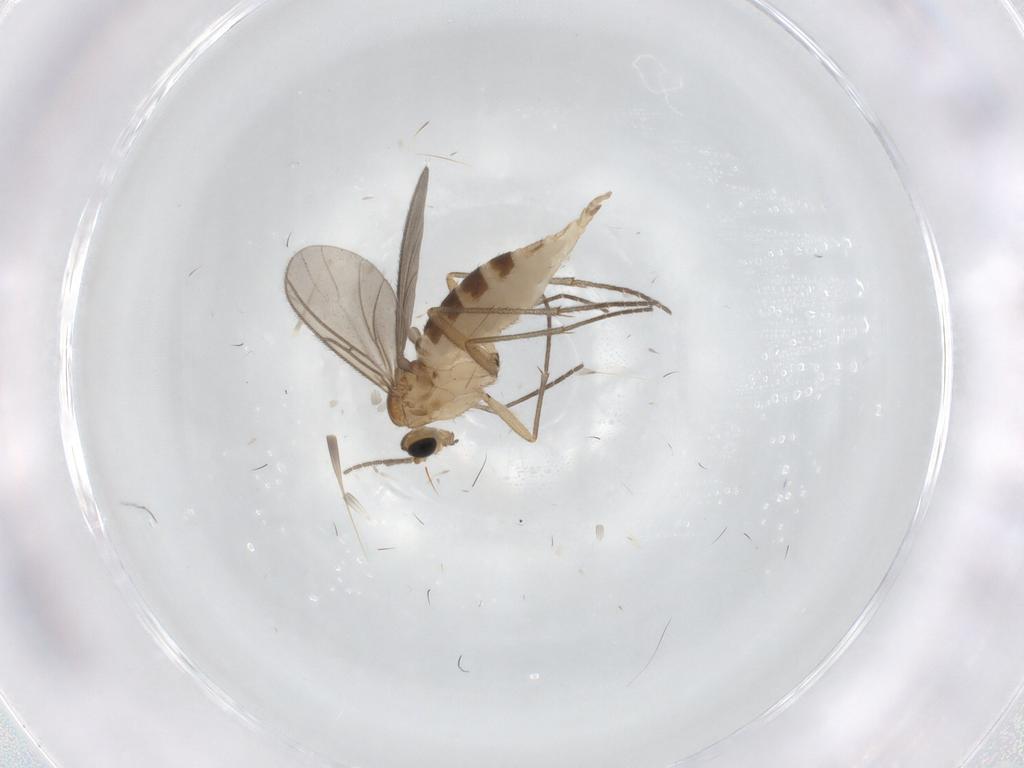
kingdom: Animalia
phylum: Arthropoda
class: Insecta
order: Diptera
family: Sciaridae
